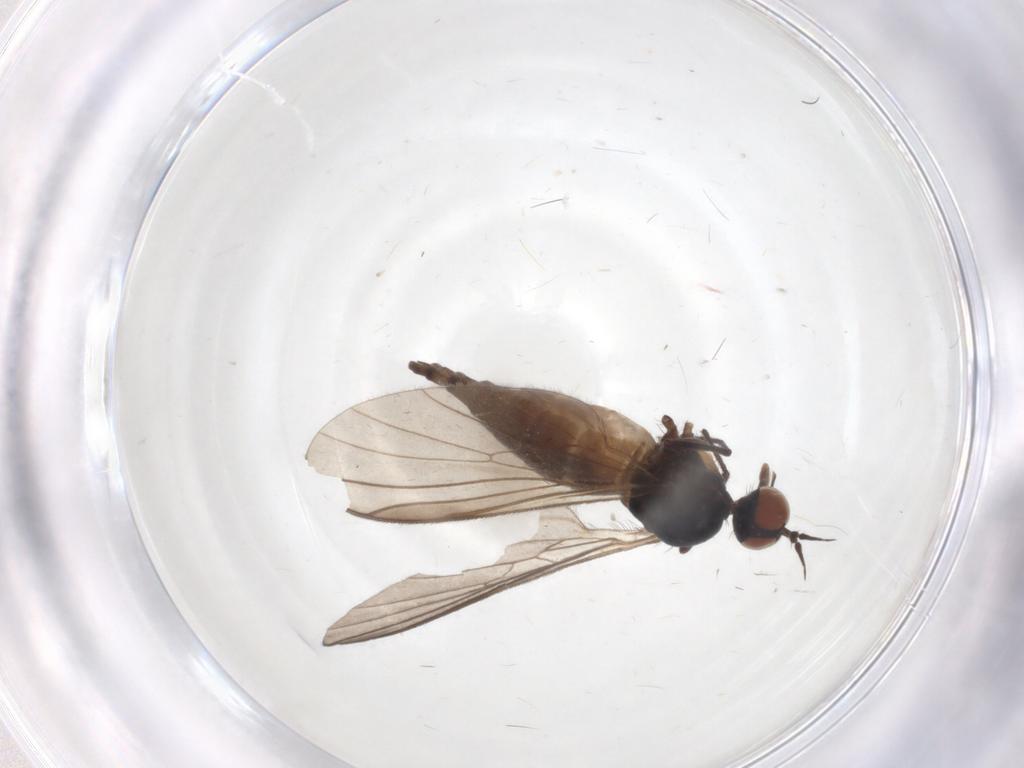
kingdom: Animalia
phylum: Arthropoda
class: Insecta
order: Diptera
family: Empididae
